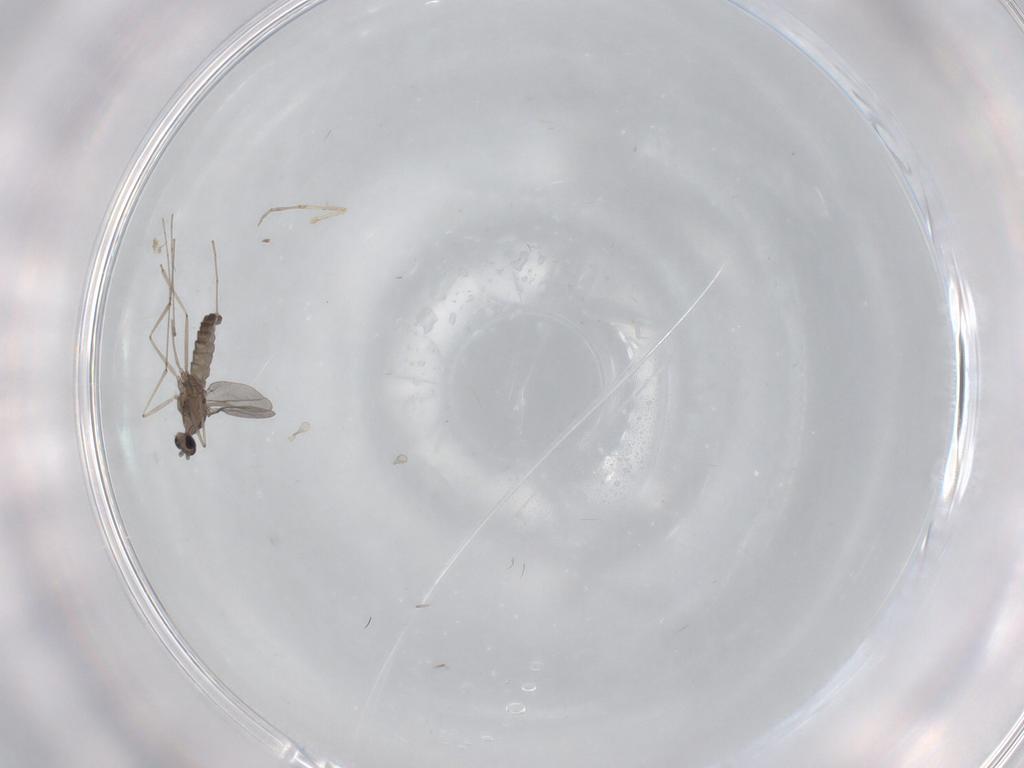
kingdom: Animalia
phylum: Arthropoda
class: Insecta
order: Diptera
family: Cecidomyiidae
